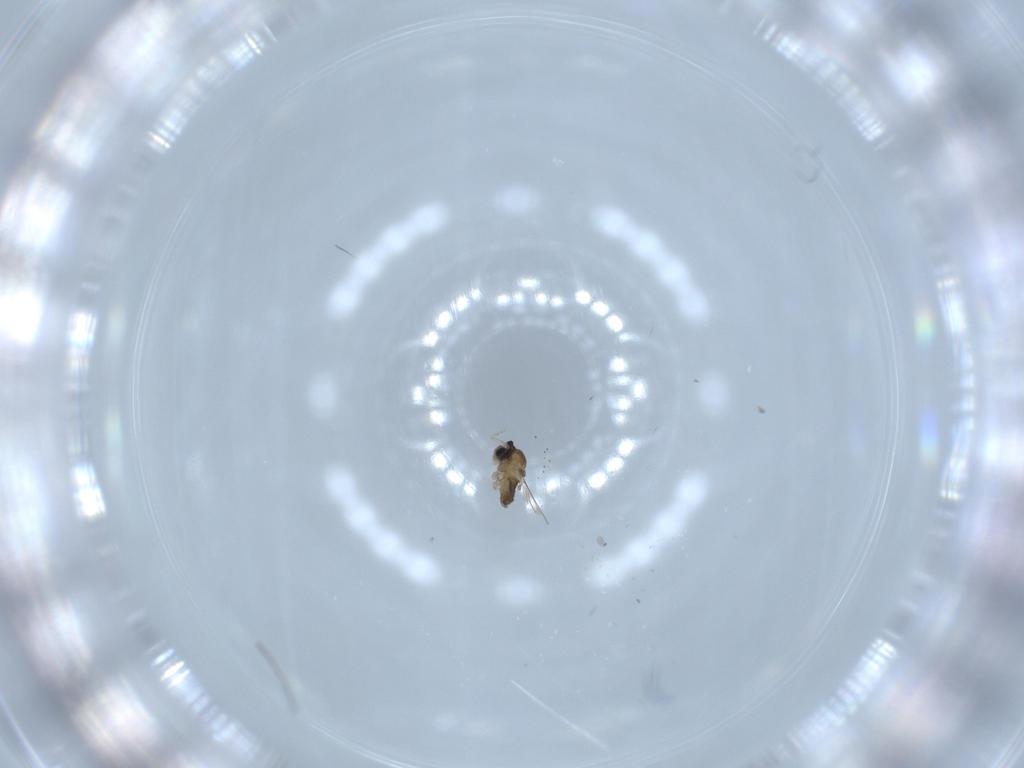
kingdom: Animalia
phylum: Arthropoda
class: Insecta
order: Diptera
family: Cecidomyiidae
